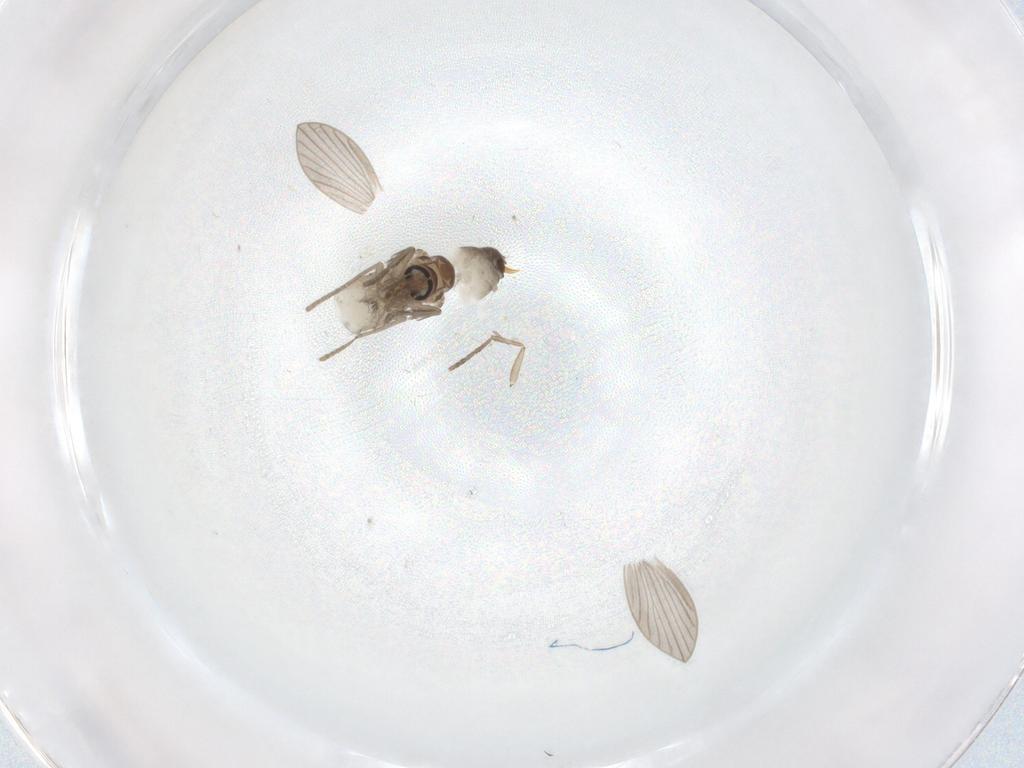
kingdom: Animalia
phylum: Arthropoda
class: Insecta
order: Diptera
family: Psychodidae
